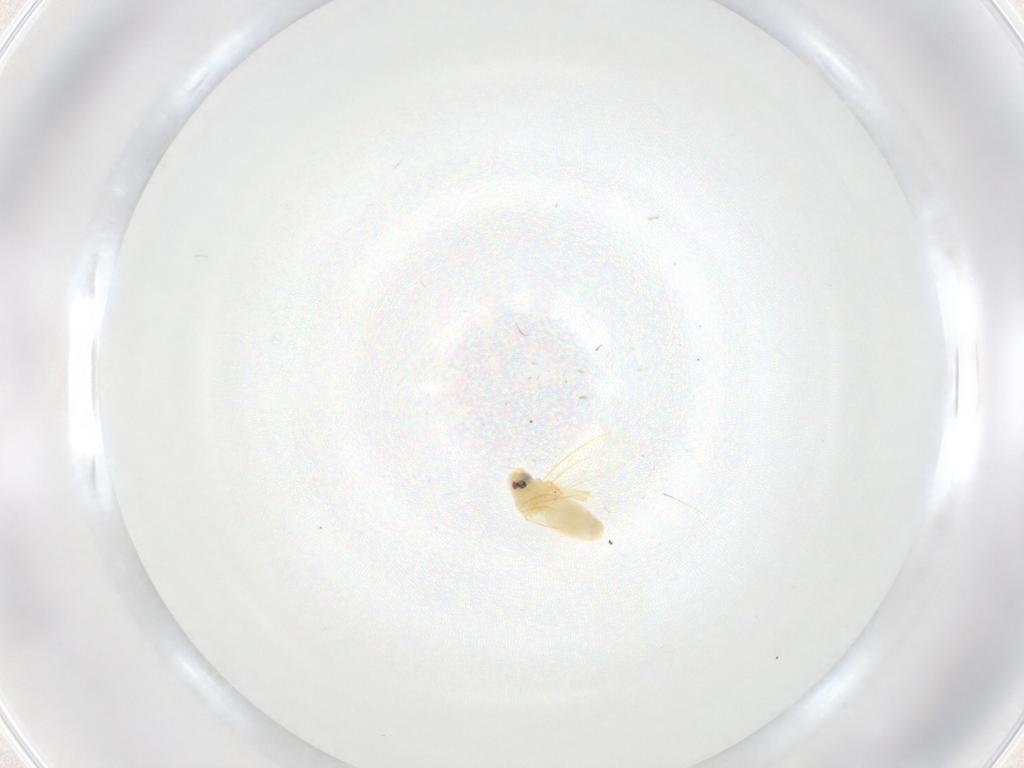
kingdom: Animalia
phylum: Arthropoda
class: Insecta
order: Hemiptera
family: Aleyrodidae
